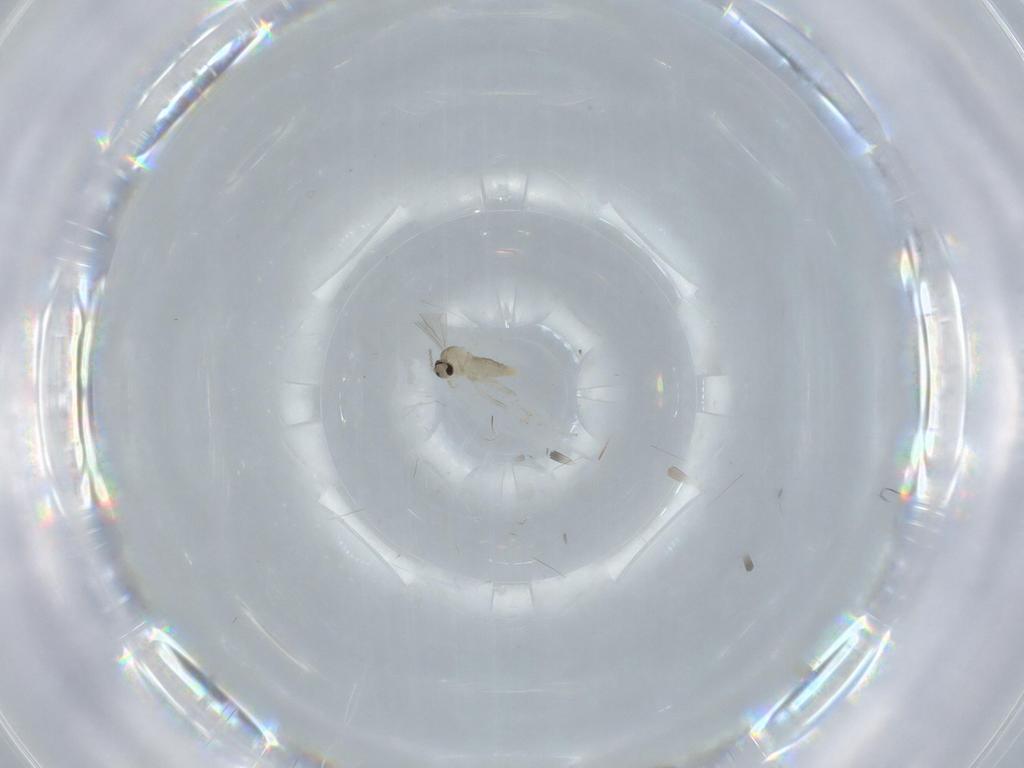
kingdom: Animalia
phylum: Arthropoda
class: Insecta
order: Diptera
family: Cecidomyiidae
